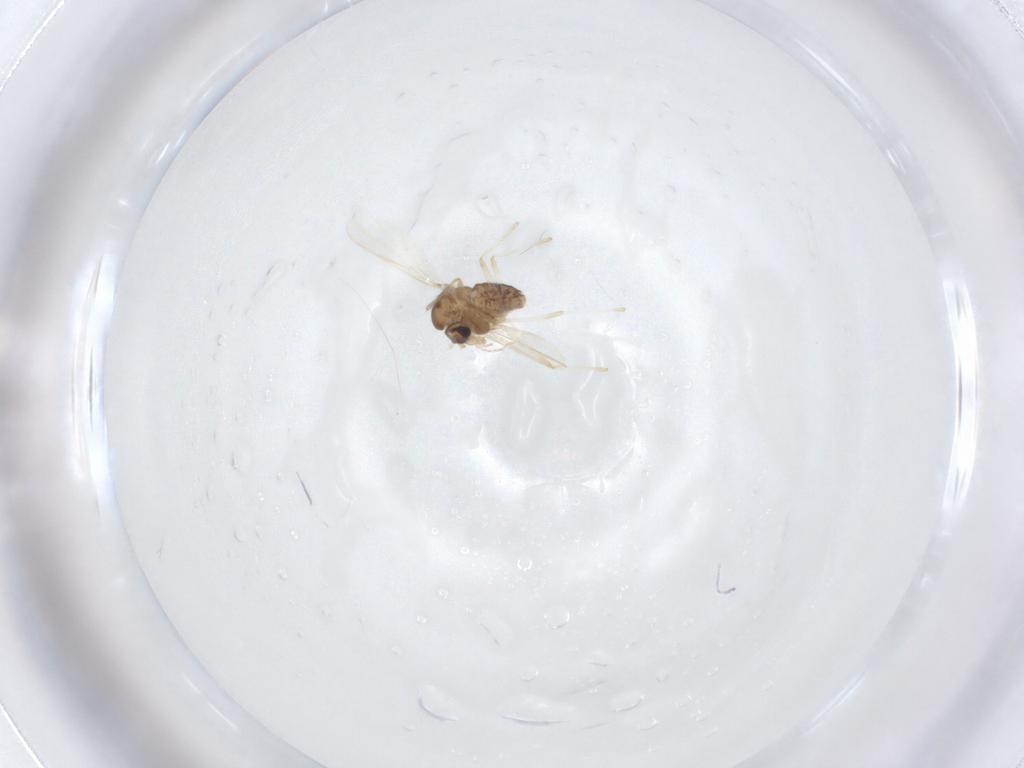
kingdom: Animalia
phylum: Arthropoda
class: Insecta
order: Diptera
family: Chironomidae
